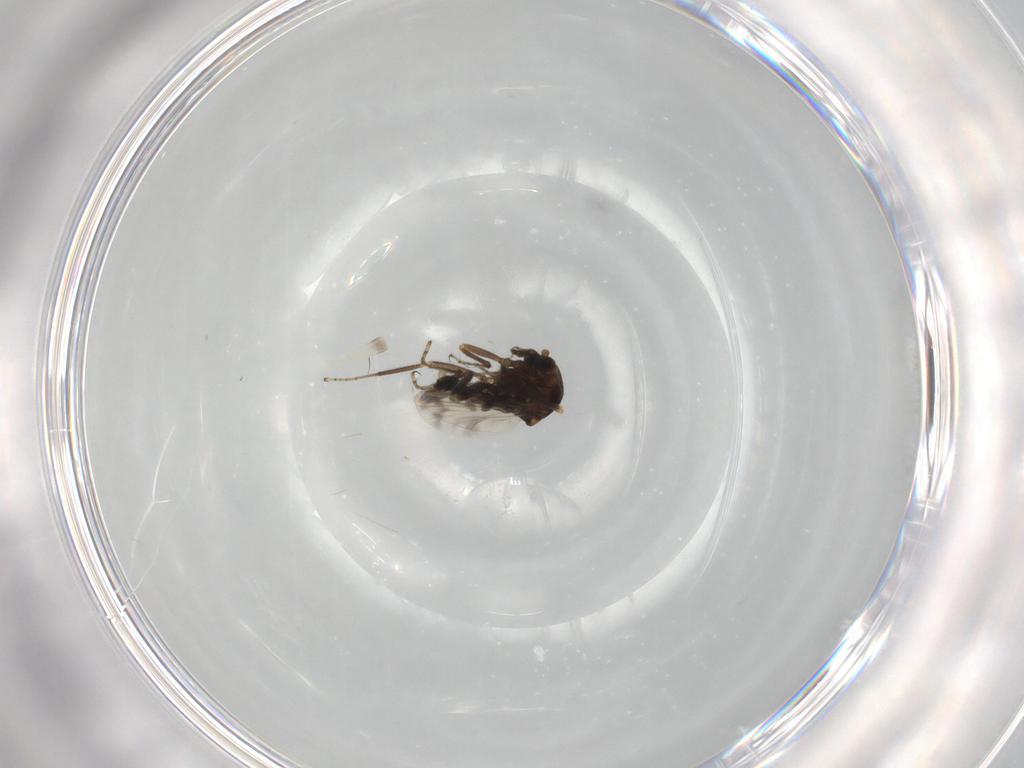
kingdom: Animalia
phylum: Arthropoda
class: Insecta
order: Diptera
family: Ceratopogonidae
